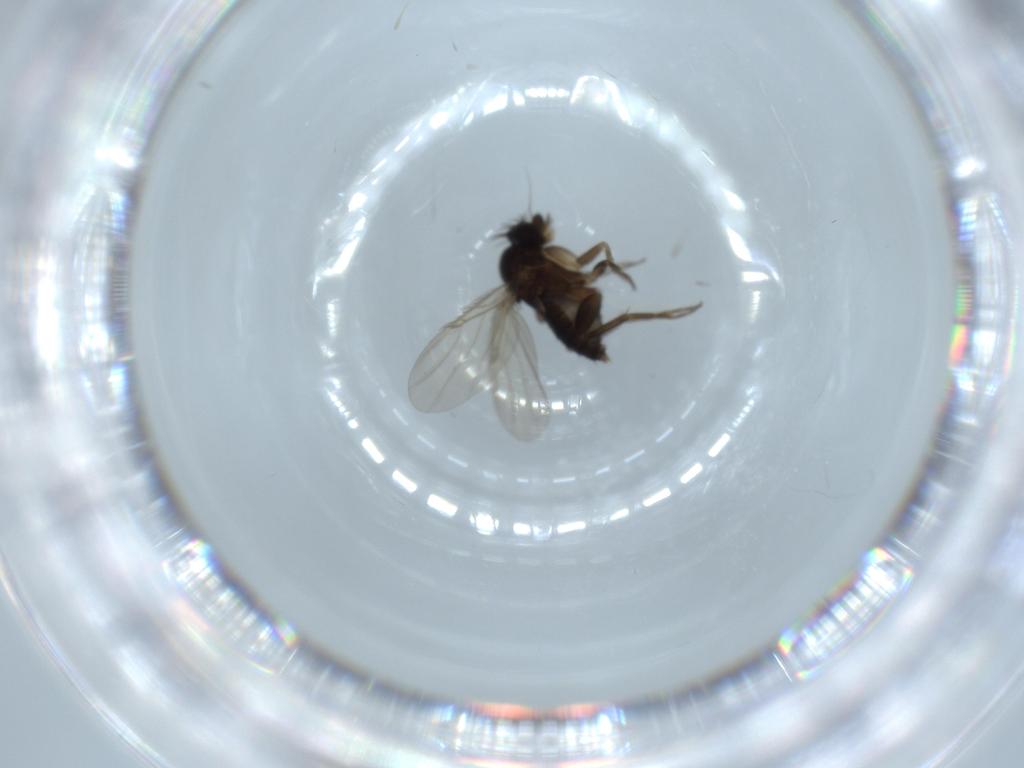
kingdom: Animalia
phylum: Arthropoda
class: Insecta
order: Diptera
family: Phoridae
